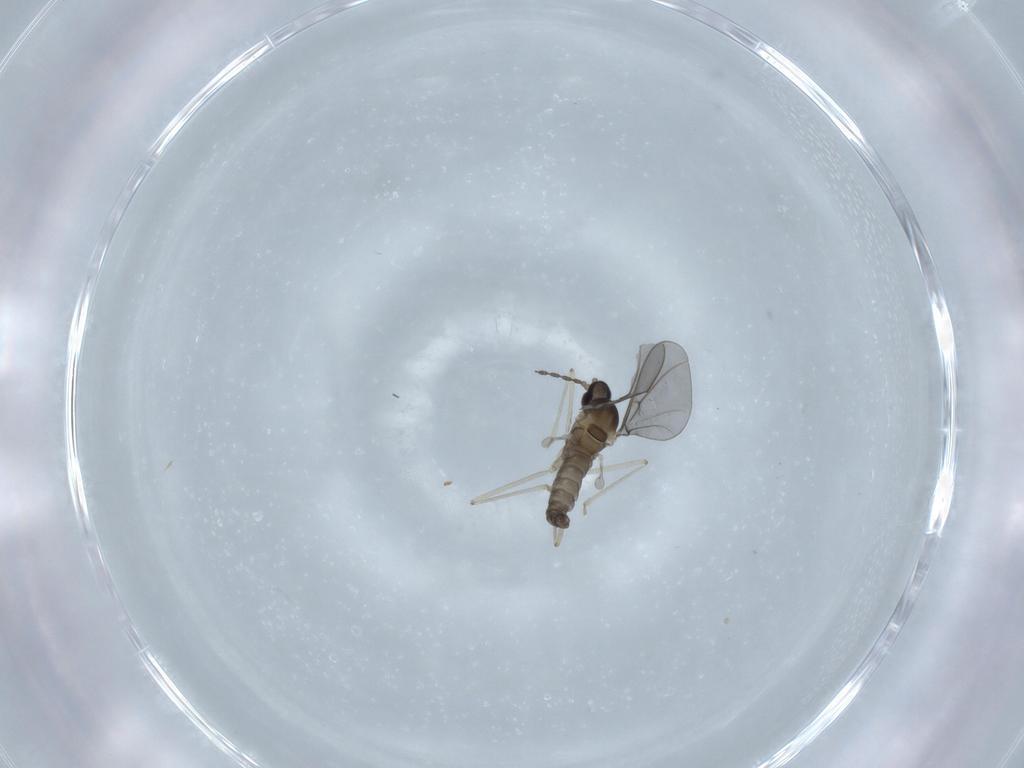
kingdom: Animalia
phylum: Arthropoda
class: Insecta
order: Diptera
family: Cecidomyiidae
